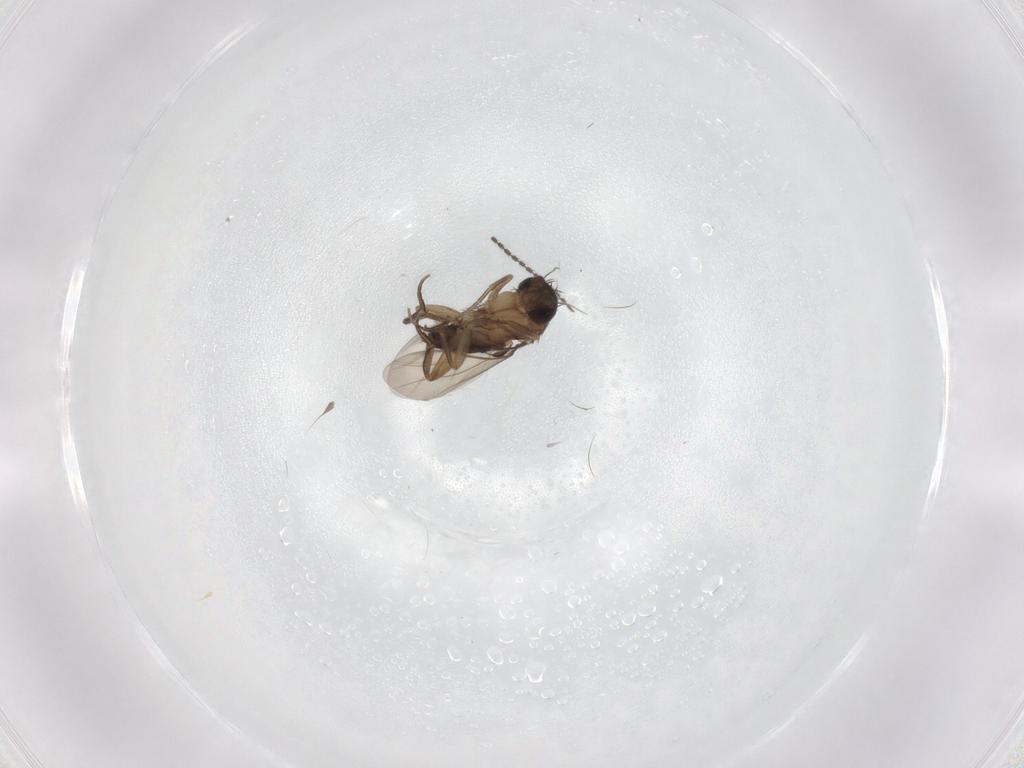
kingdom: Animalia
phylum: Arthropoda
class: Insecta
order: Diptera
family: Phoridae
